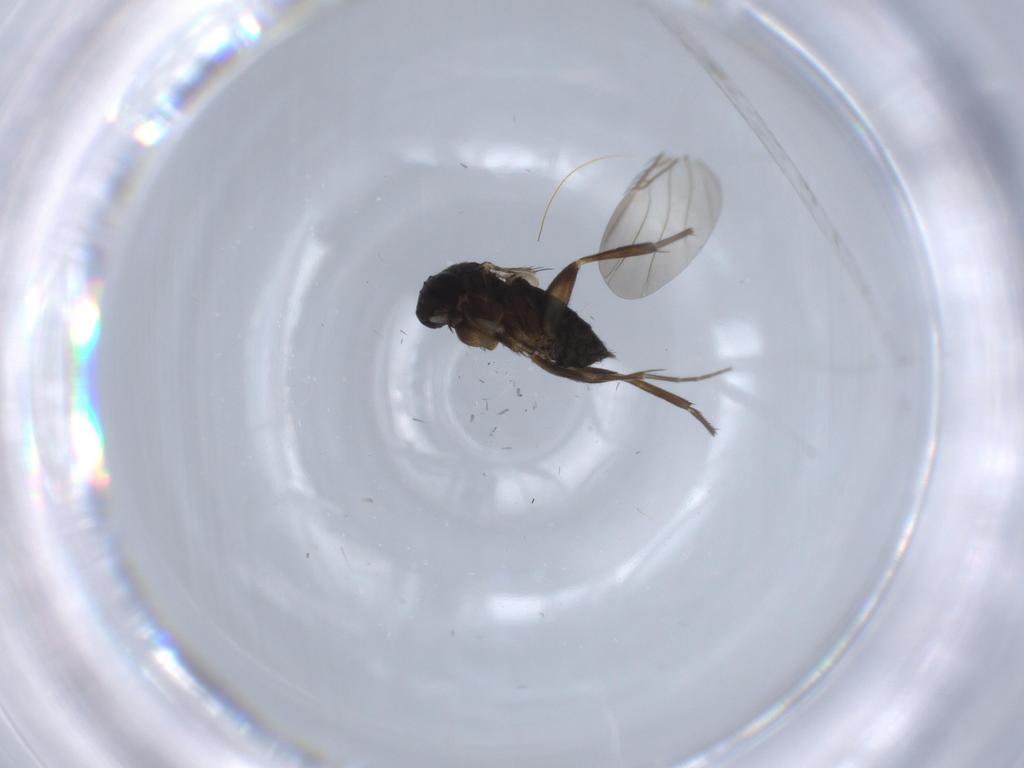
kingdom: Animalia
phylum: Arthropoda
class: Insecta
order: Diptera
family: Phoridae
